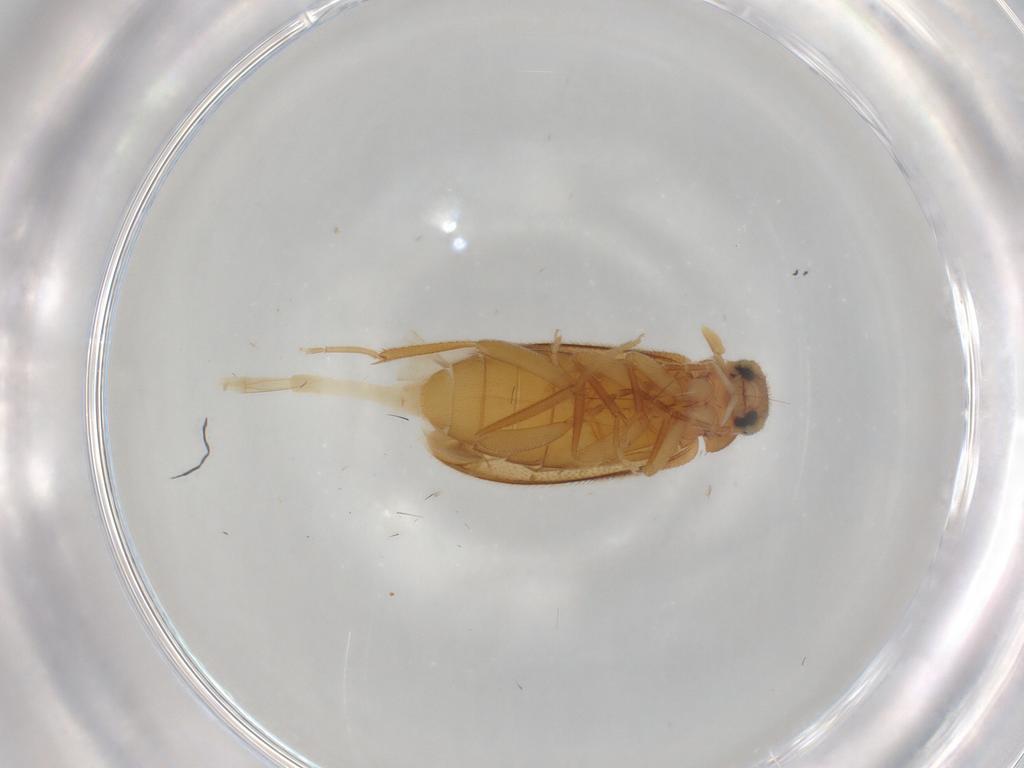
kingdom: Animalia
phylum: Arthropoda
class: Insecta
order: Coleoptera
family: Scraptiidae
